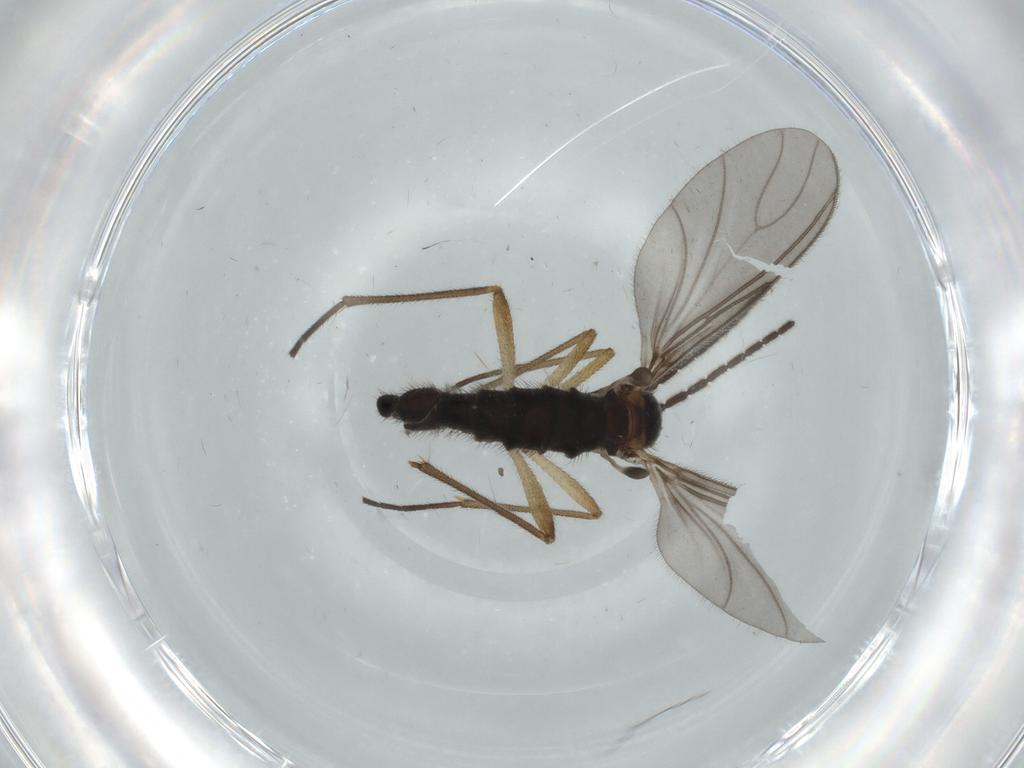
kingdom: Animalia
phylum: Arthropoda
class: Insecta
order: Diptera
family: Sciaridae
